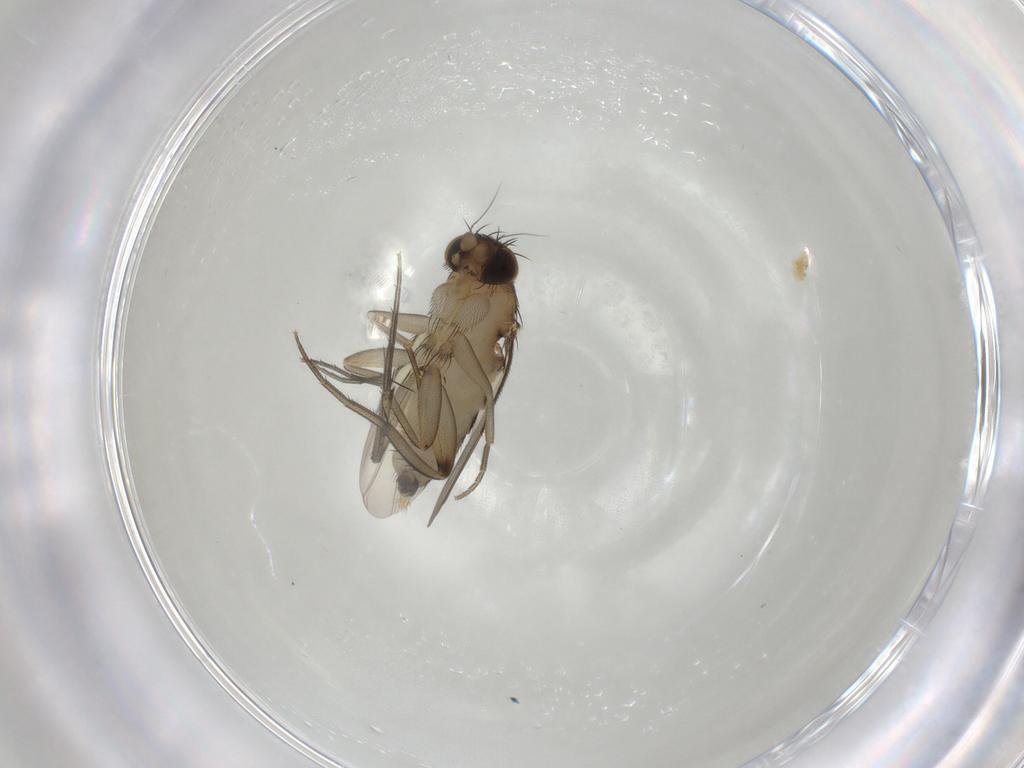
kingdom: Animalia
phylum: Arthropoda
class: Insecta
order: Diptera
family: Phoridae
